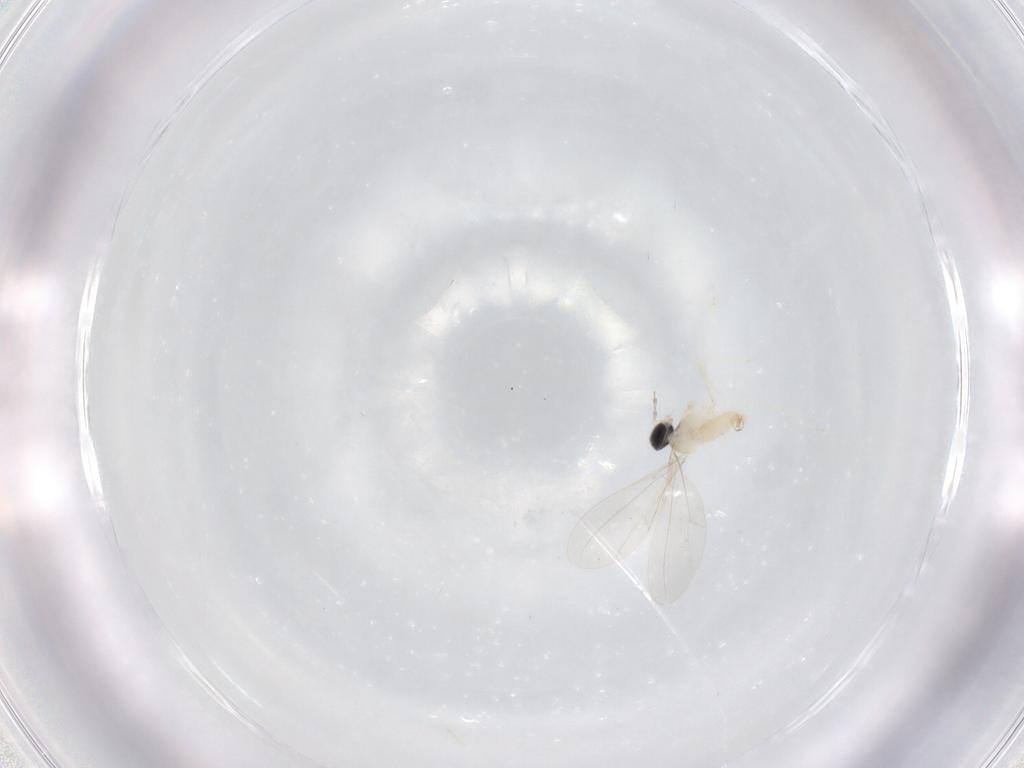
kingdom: Animalia
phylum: Arthropoda
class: Insecta
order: Diptera
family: Cecidomyiidae
